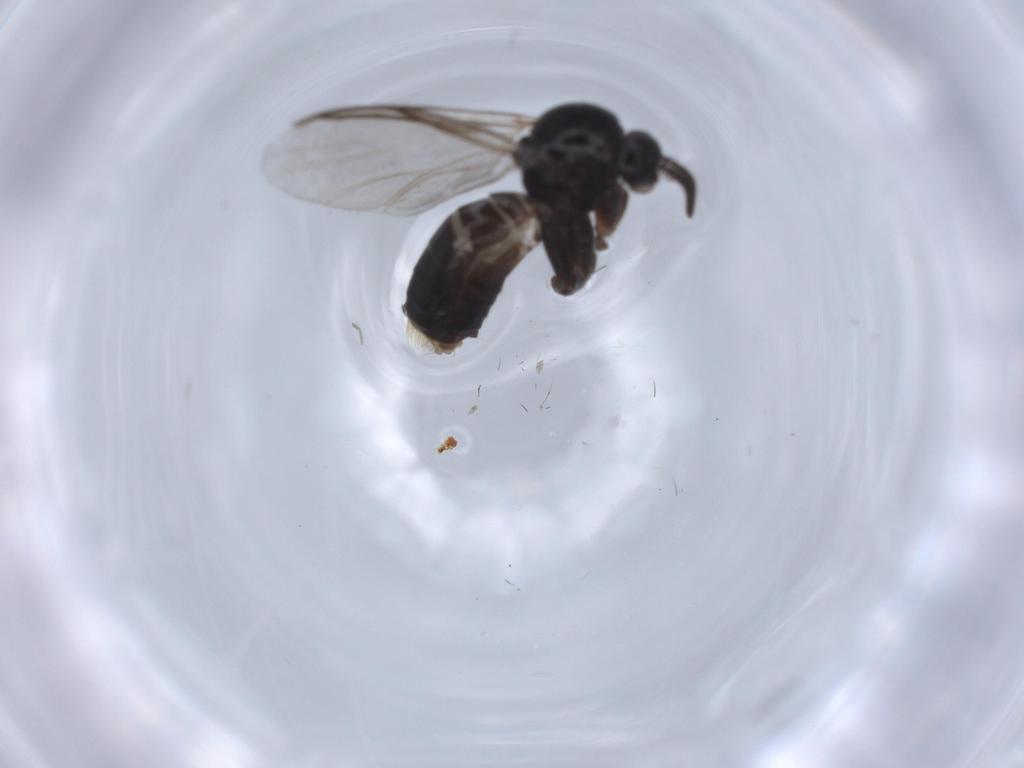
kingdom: Animalia
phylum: Arthropoda
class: Insecta
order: Diptera
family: Mycetophilidae
